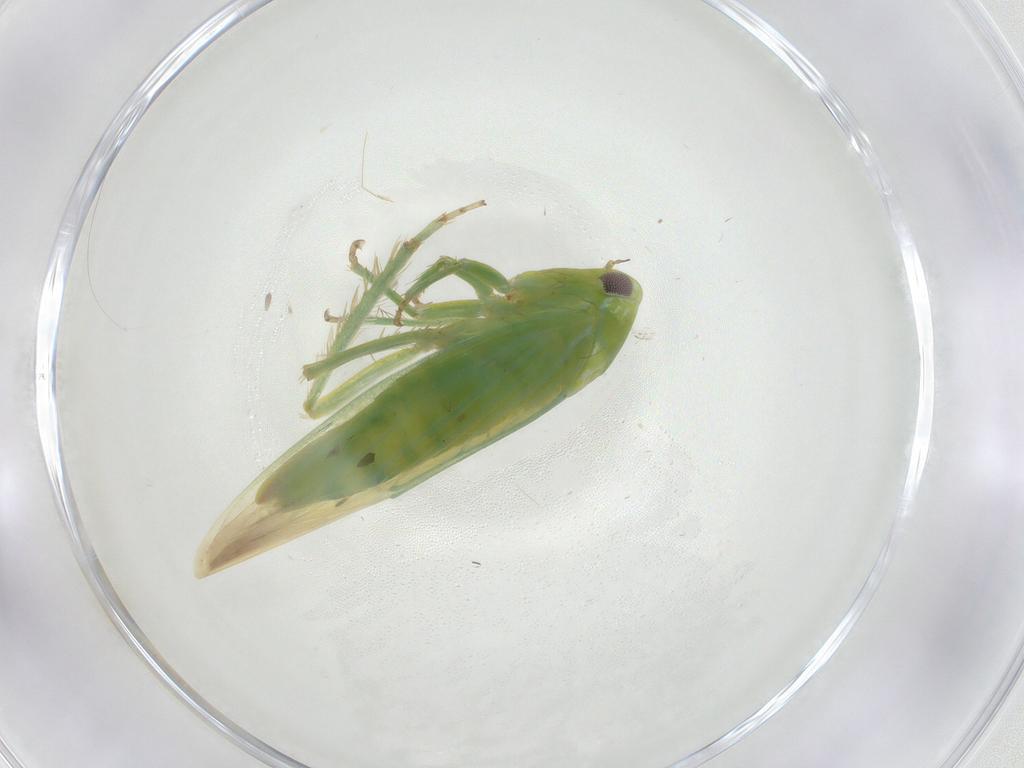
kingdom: Animalia
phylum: Arthropoda
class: Insecta
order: Hemiptera
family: Cicadellidae
